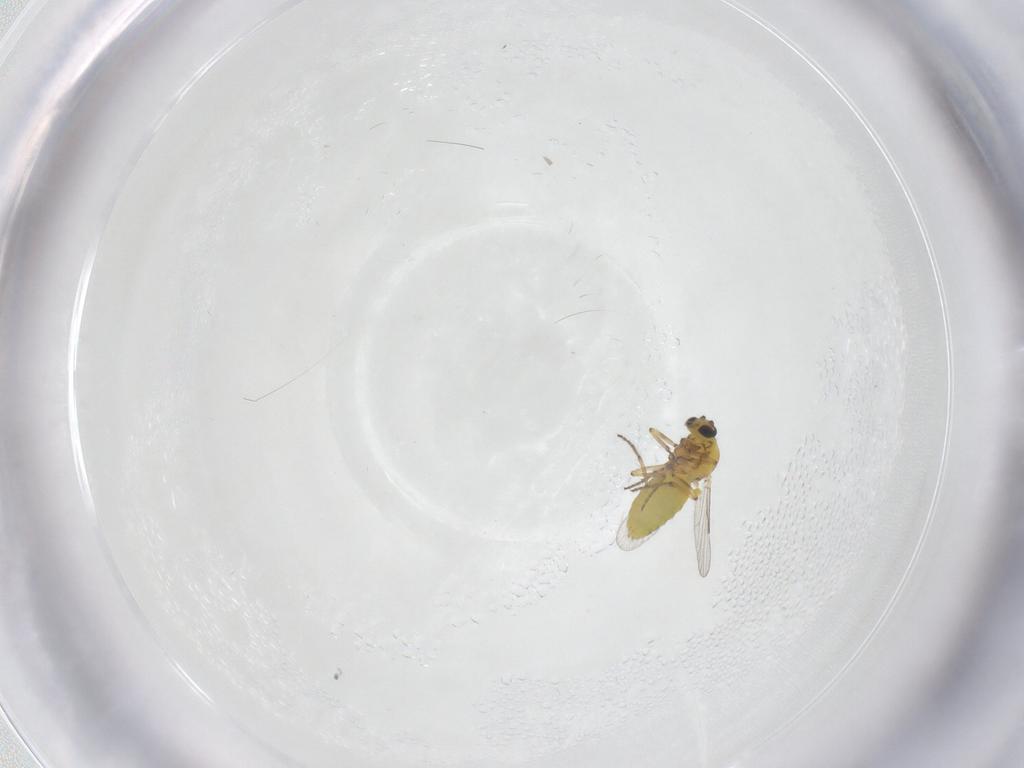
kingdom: Animalia
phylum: Arthropoda
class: Insecta
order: Diptera
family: Ceratopogonidae
